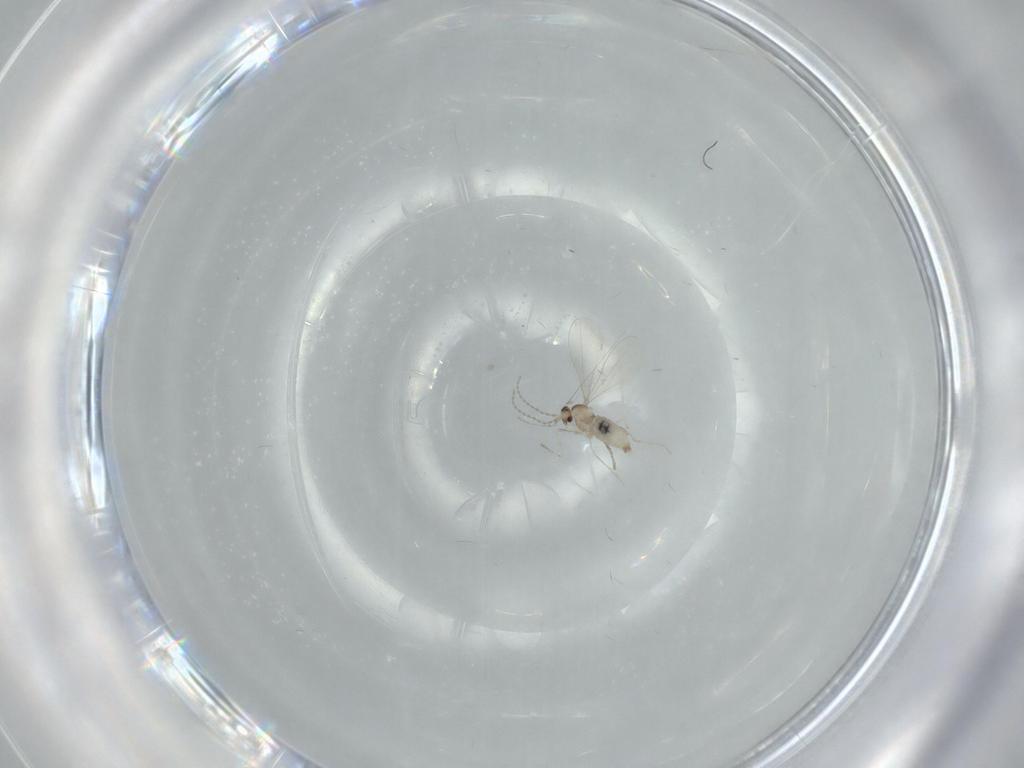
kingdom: Animalia
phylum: Arthropoda
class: Insecta
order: Diptera
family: Cecidomyiidae
